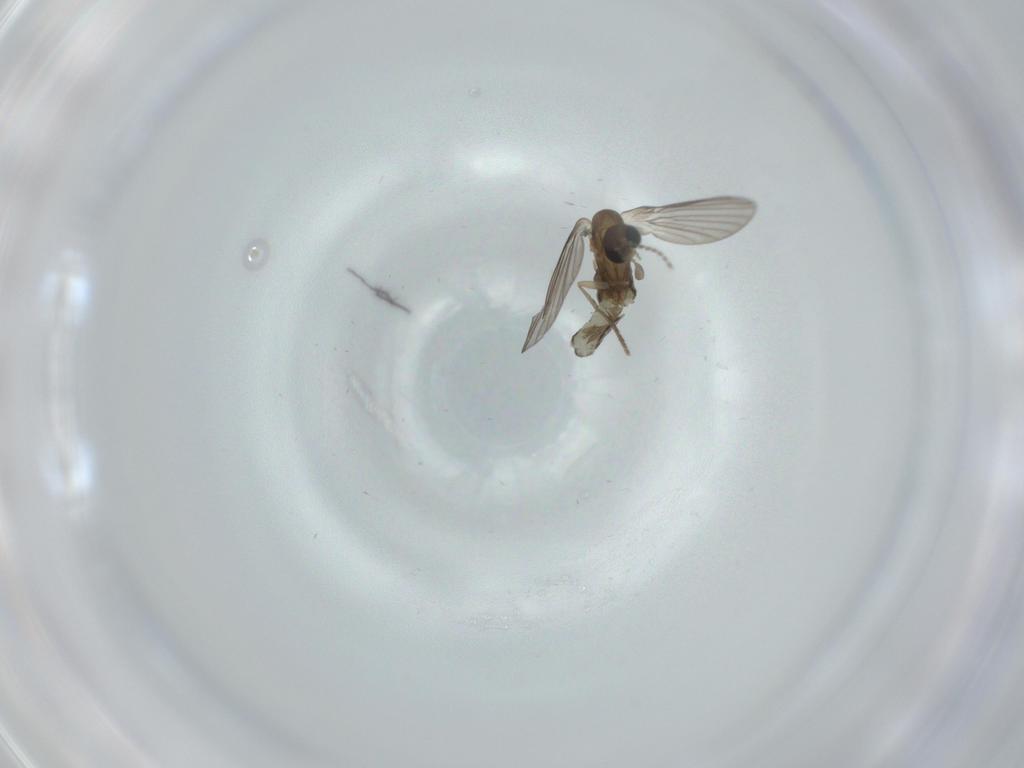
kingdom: Animalia
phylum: Arthropoda
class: Insecta
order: Diptera
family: Psychodidae
